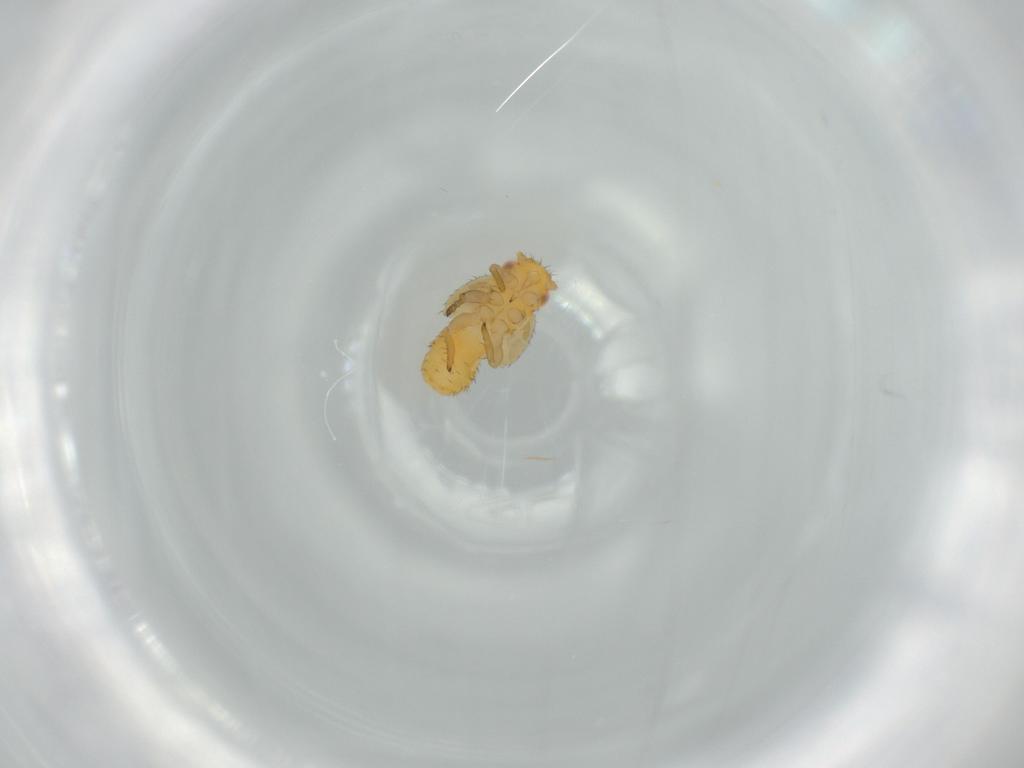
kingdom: Animalia
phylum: Arthropoda
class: Insecta
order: Hemiptera
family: Psyllidae
